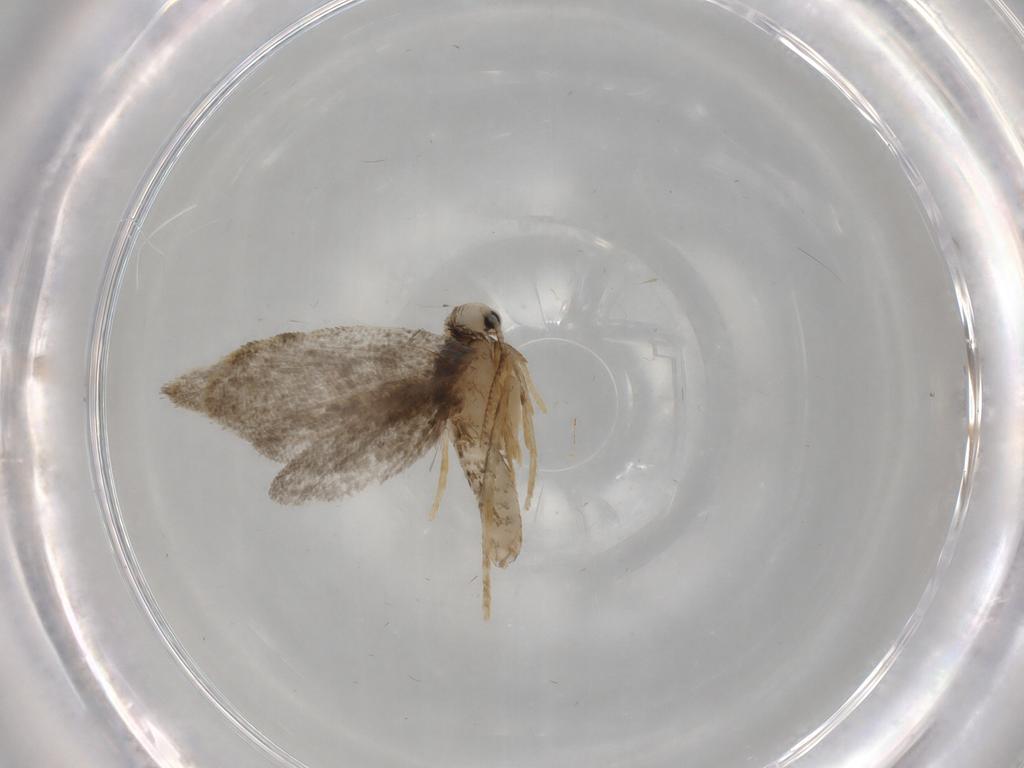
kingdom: Animalia
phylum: Arthropoda
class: Insecta
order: Lepidoptera
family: Psychidae
